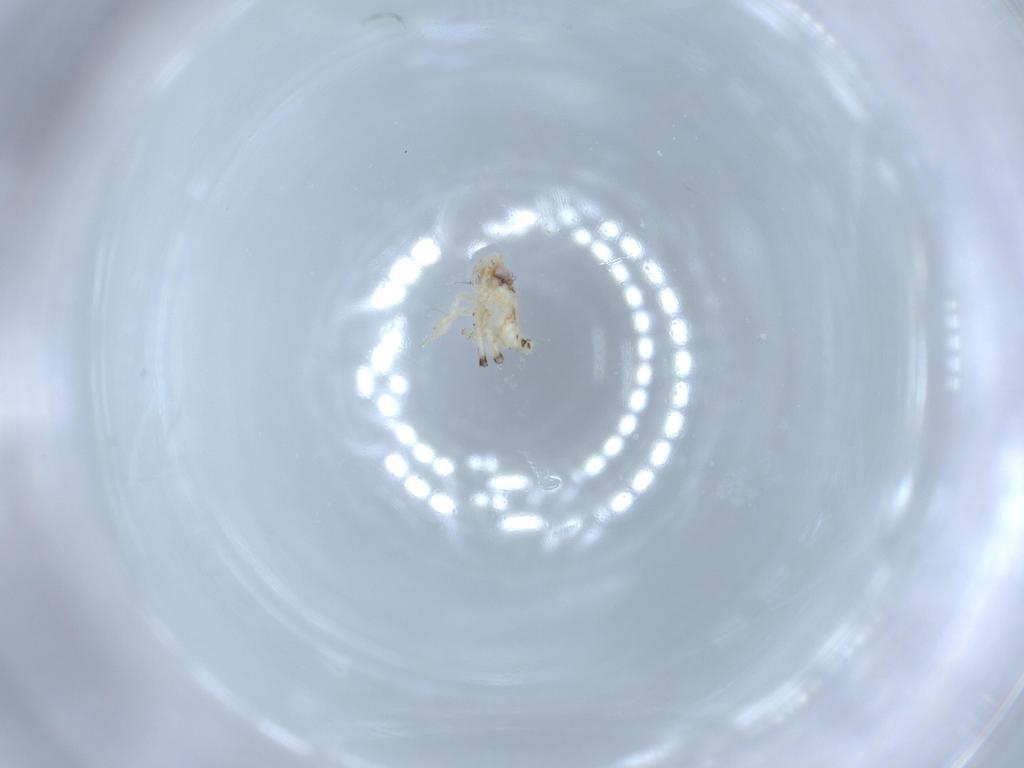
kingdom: Animalia
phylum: Arthropoda
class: Insecta
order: Hemiptera
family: Nogodinidae
